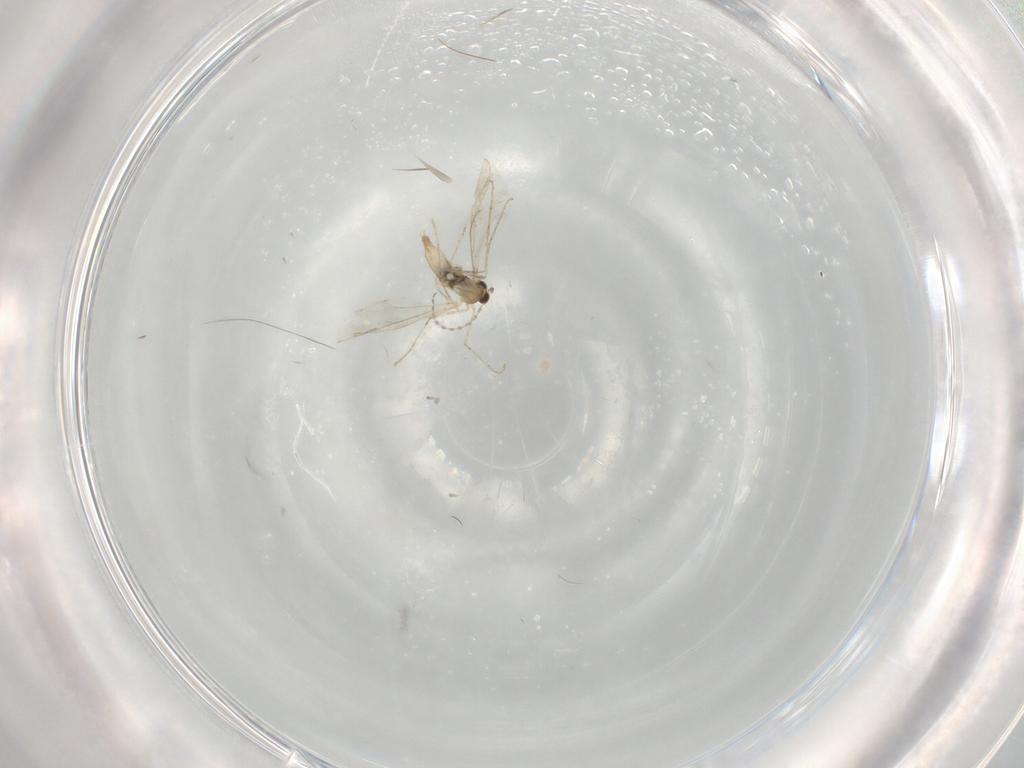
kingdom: Animalia
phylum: Arthropoda
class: Insecta
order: Diptera
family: Cecidomyiidae
